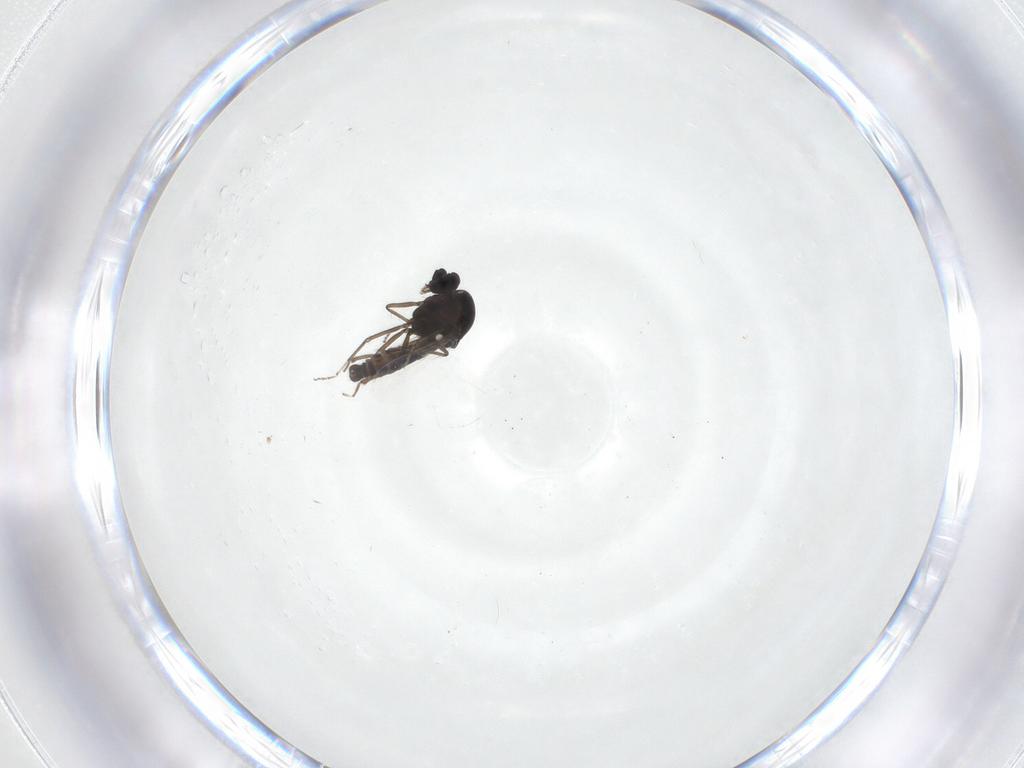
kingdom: Animalia
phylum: Arthropoda
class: Insecta
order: Diptera
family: Ceratopogonidae
